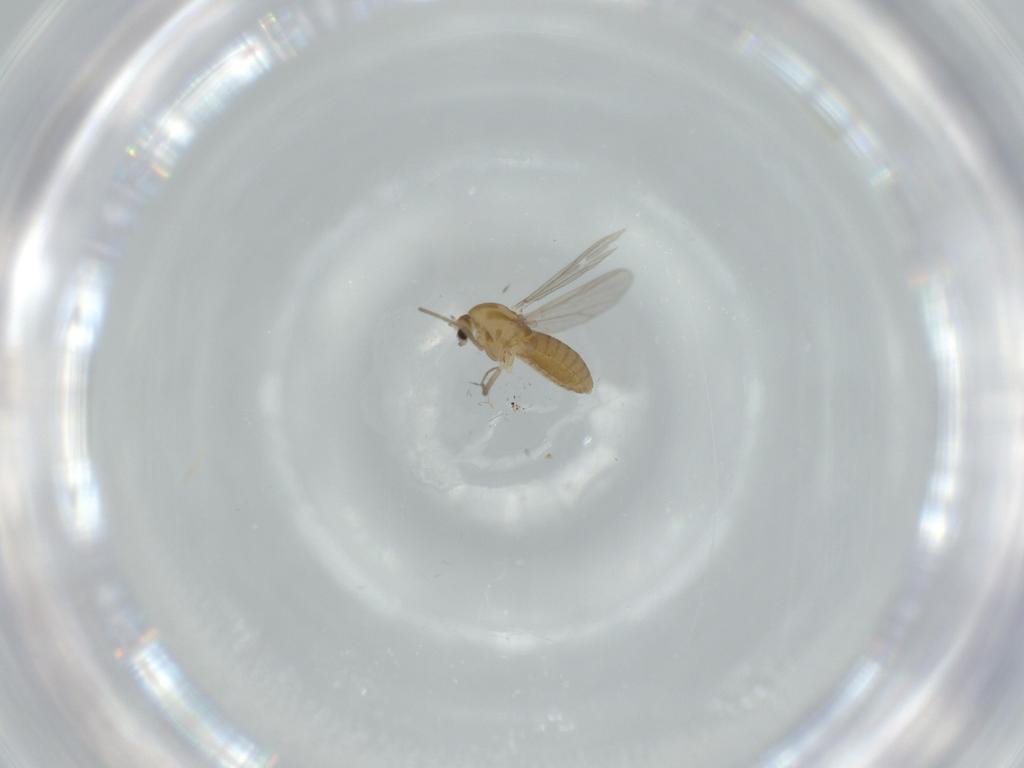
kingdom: Animalia
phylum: Arthropoda
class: Insecta
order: Diptera
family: Chironomidae
